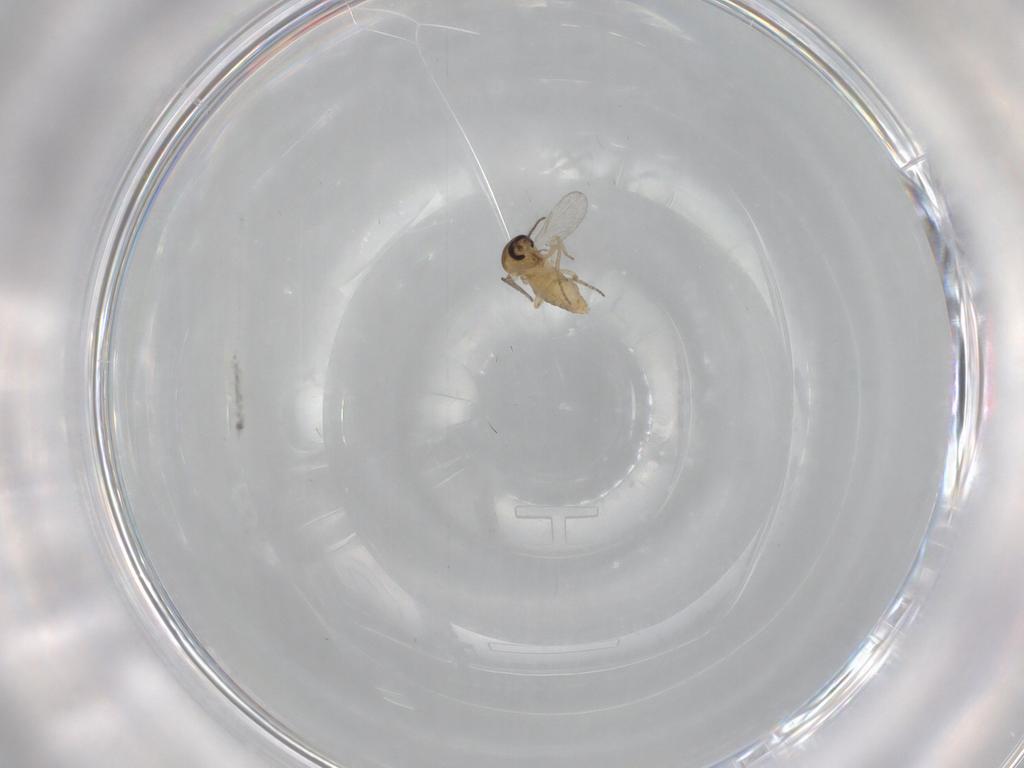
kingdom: Animalia
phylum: Arthropoda
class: Insecta
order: Diptera
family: Ceratopogonidae
